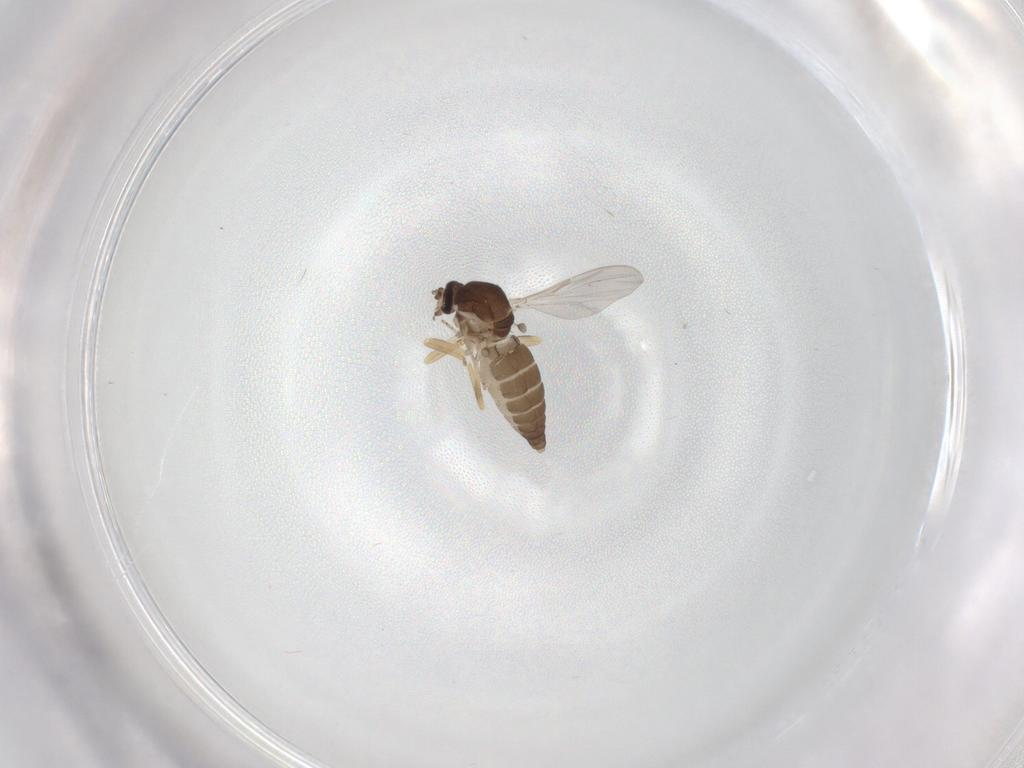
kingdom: Animalia
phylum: Arthropoda
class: Insecta
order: Diptera
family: Ceratopogonidae
